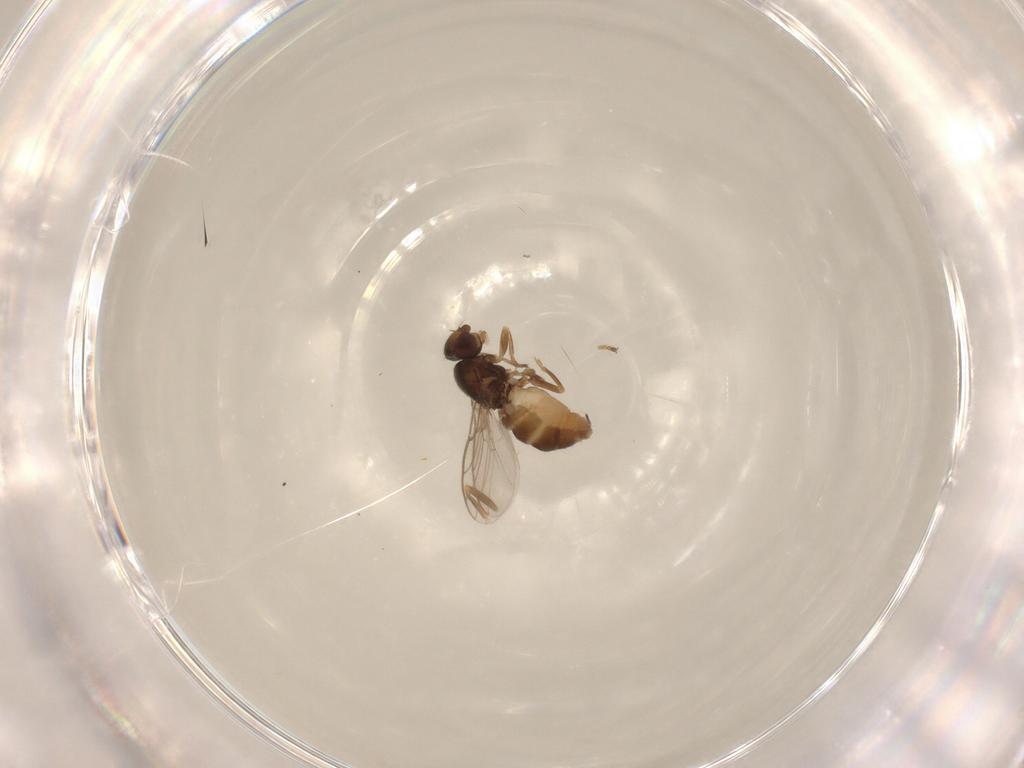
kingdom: Animalia
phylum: Arthropoda
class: Insecta
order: Diptera
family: Chloropidae
